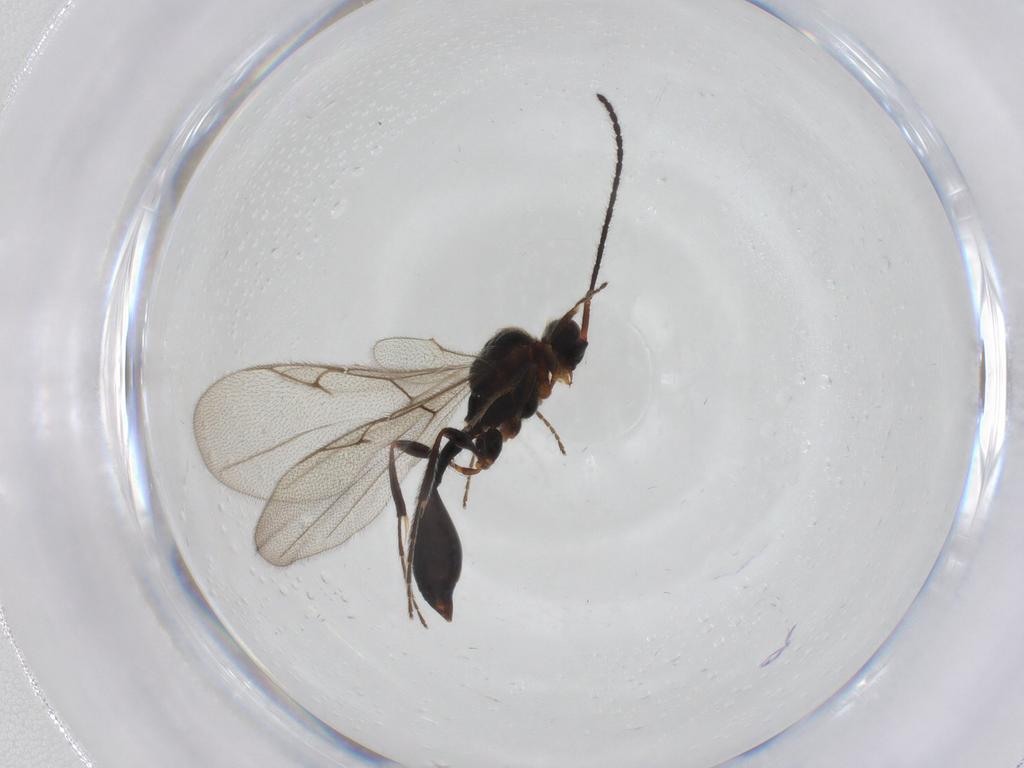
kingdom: Animalia
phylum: Arthropoda
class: Insecta
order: Hymenoptera
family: Diapriidae
